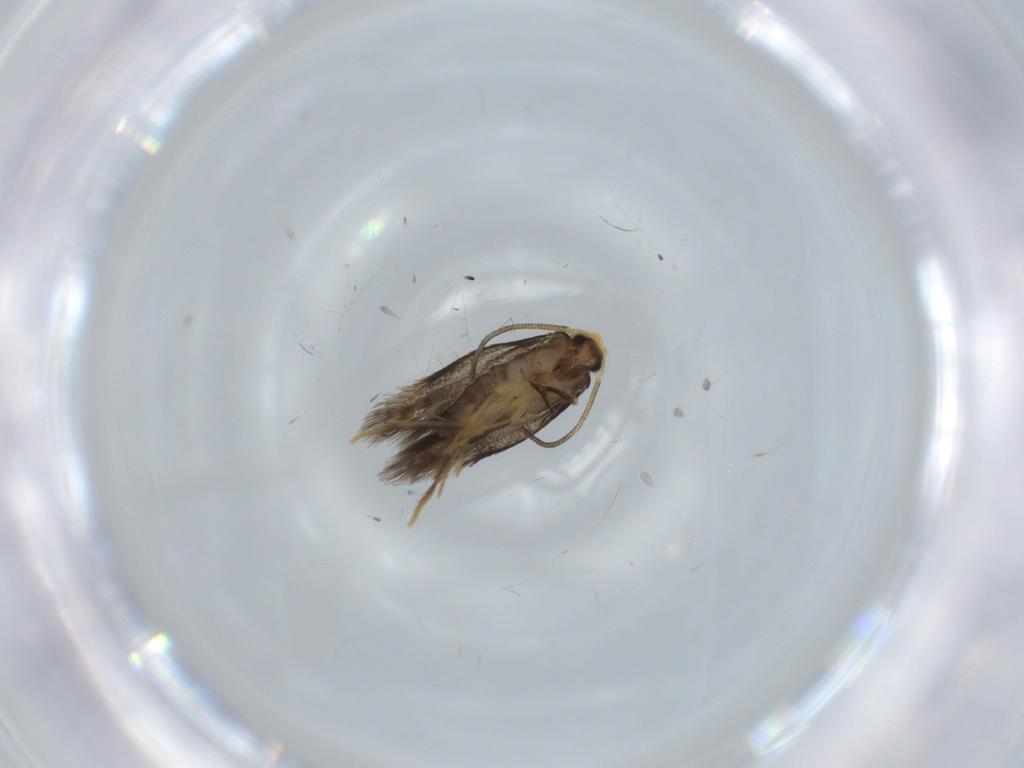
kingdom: Animalia
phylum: Arthropoda
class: Insecta
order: Lepidoptera
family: Nepticulidae
